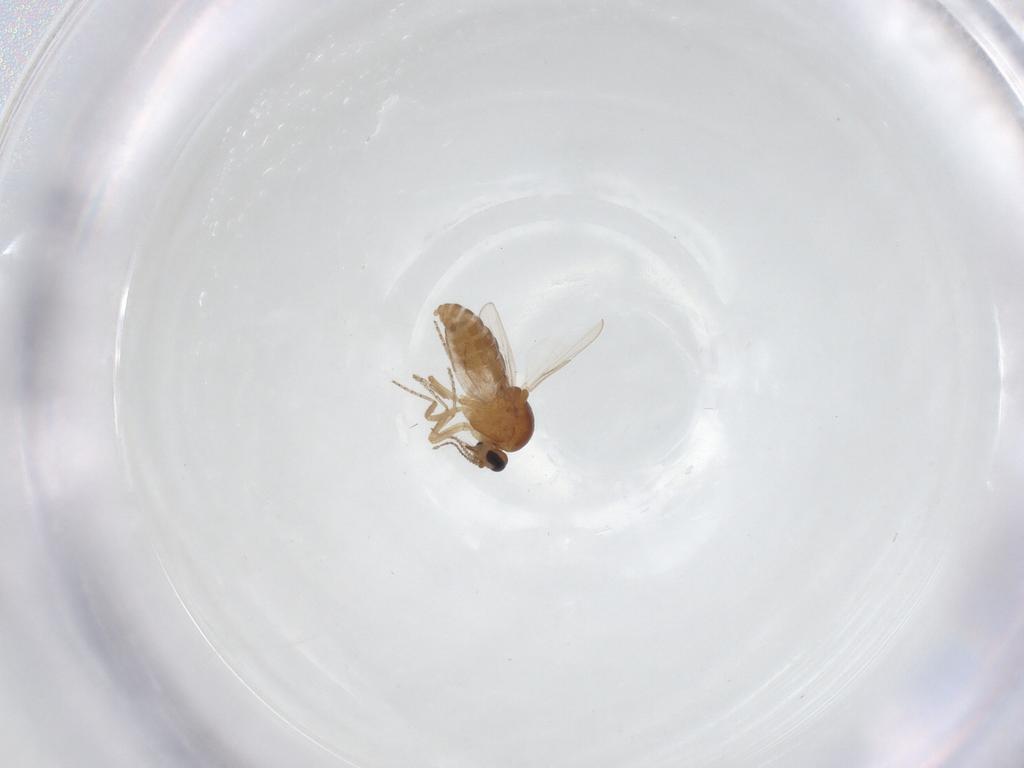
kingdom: Animalia
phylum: Arthropoda
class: Insecta
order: Diptera
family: Ceratopogonidae
